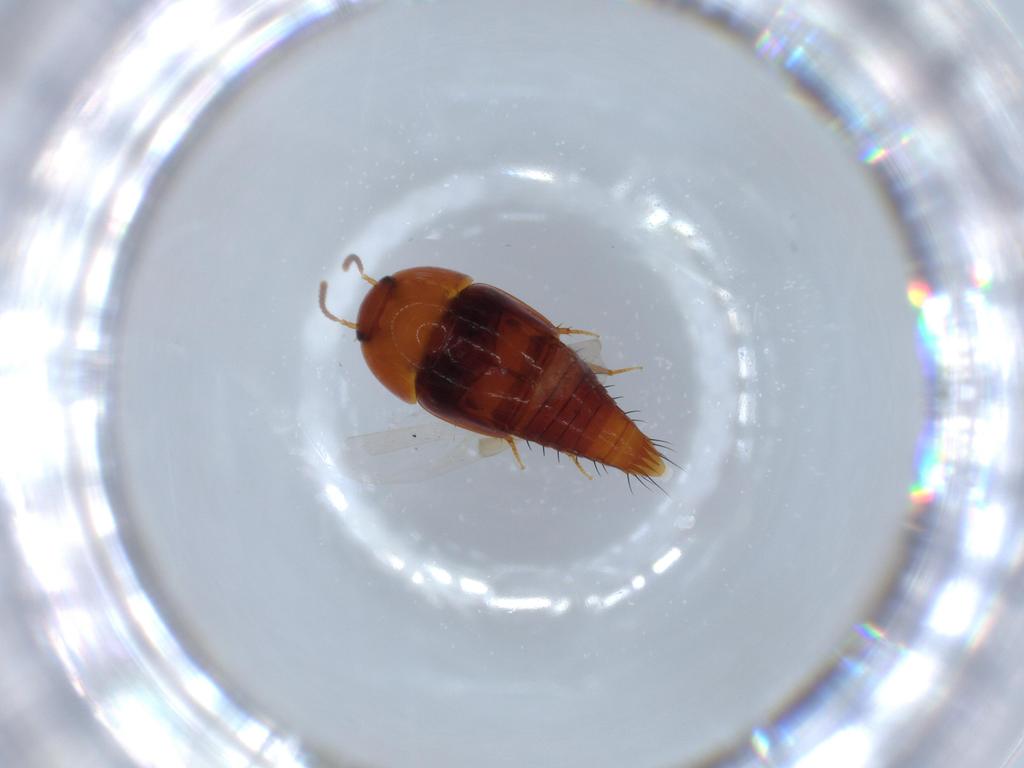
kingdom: Animalia
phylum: Arthropoda
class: Insecta
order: Coleoptera
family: Staphylinidae
